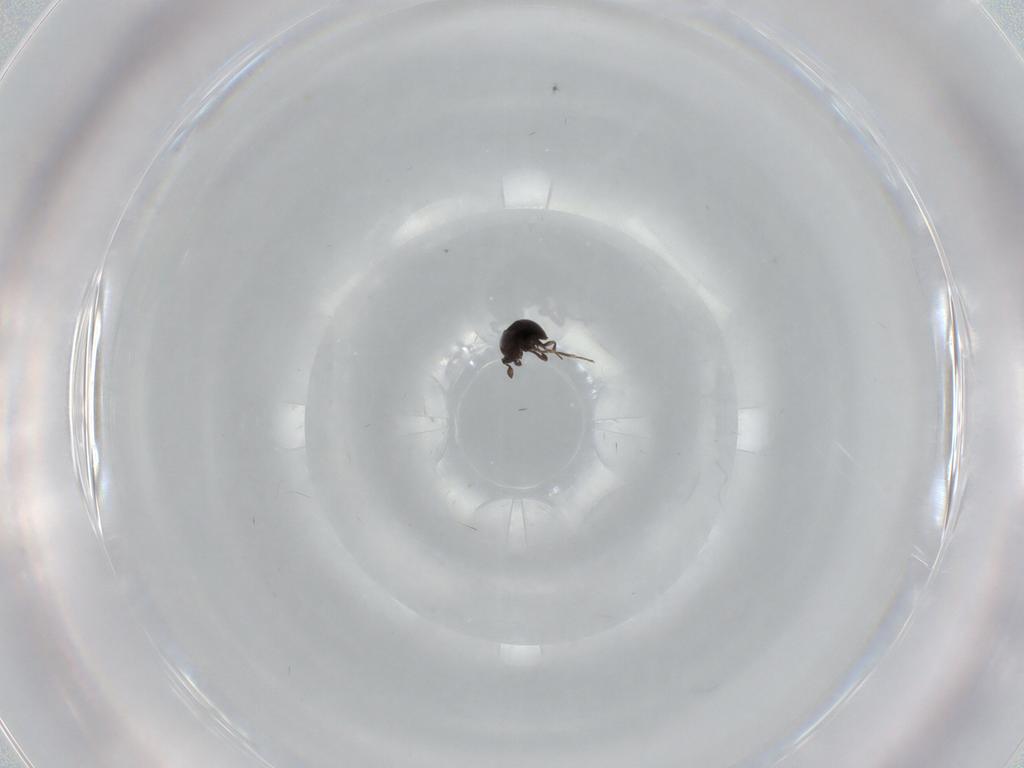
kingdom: Animalia
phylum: Arthropoda
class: Insecta
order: Hymenoptera
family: Scelionidae
